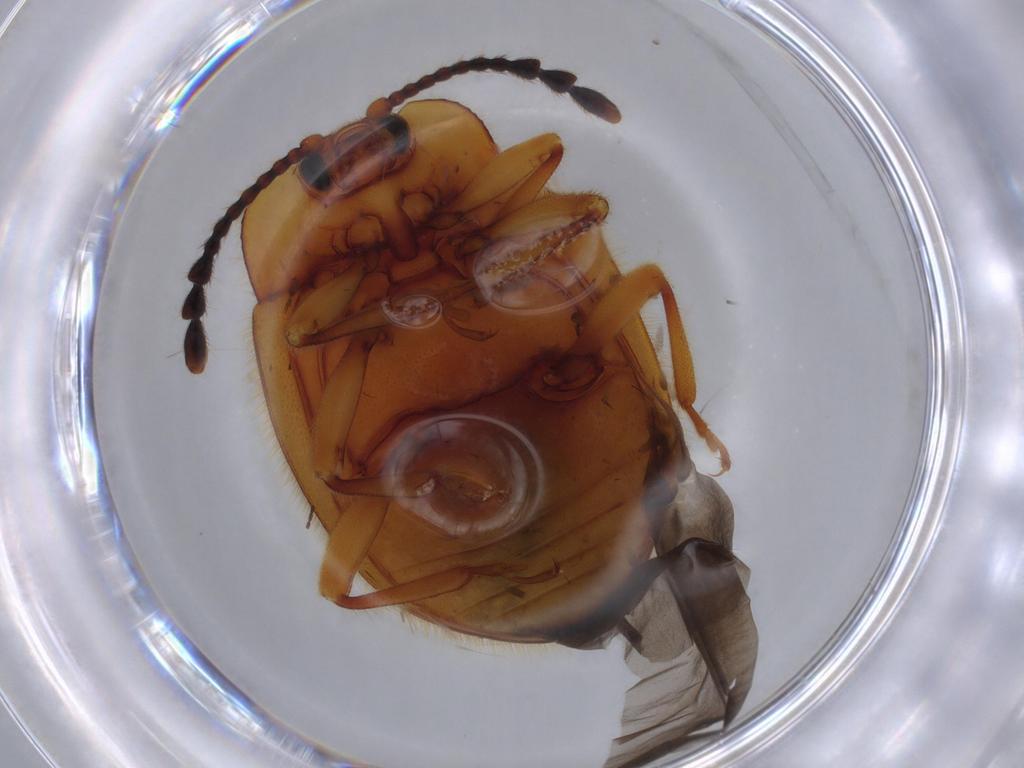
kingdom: Animalia
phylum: Arthropoda
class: Insecta
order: Coleoptera
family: Endomychidae
